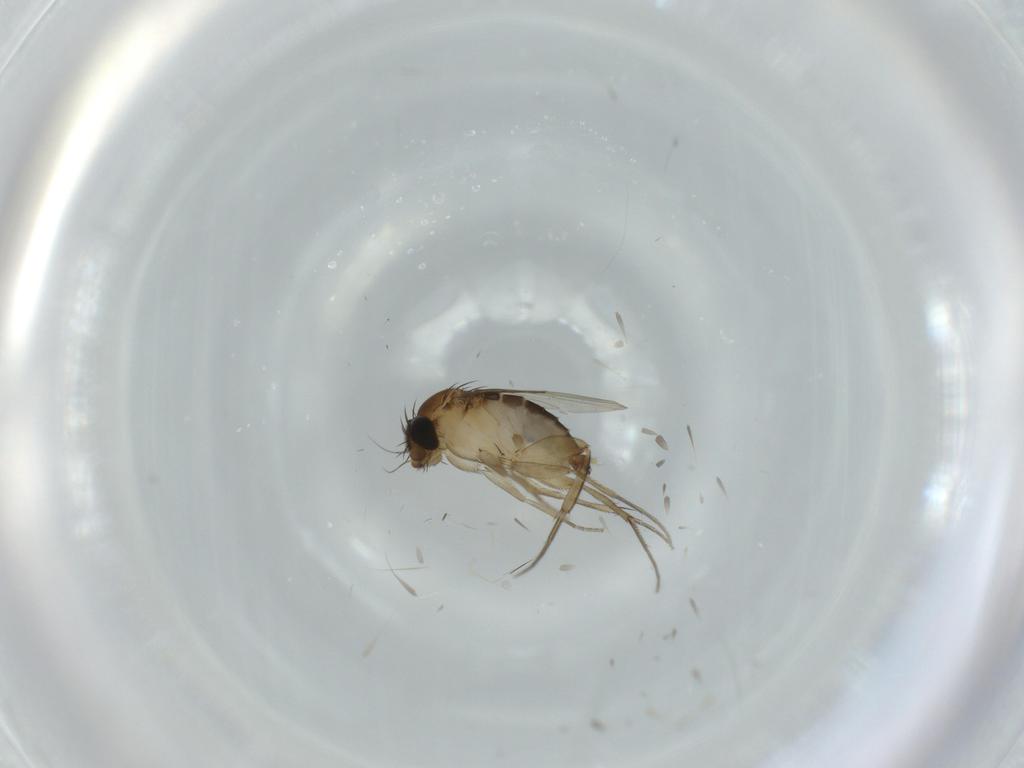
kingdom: Animalia
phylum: Arthropoda
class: Insecta
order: Diptera
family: Phoridae
